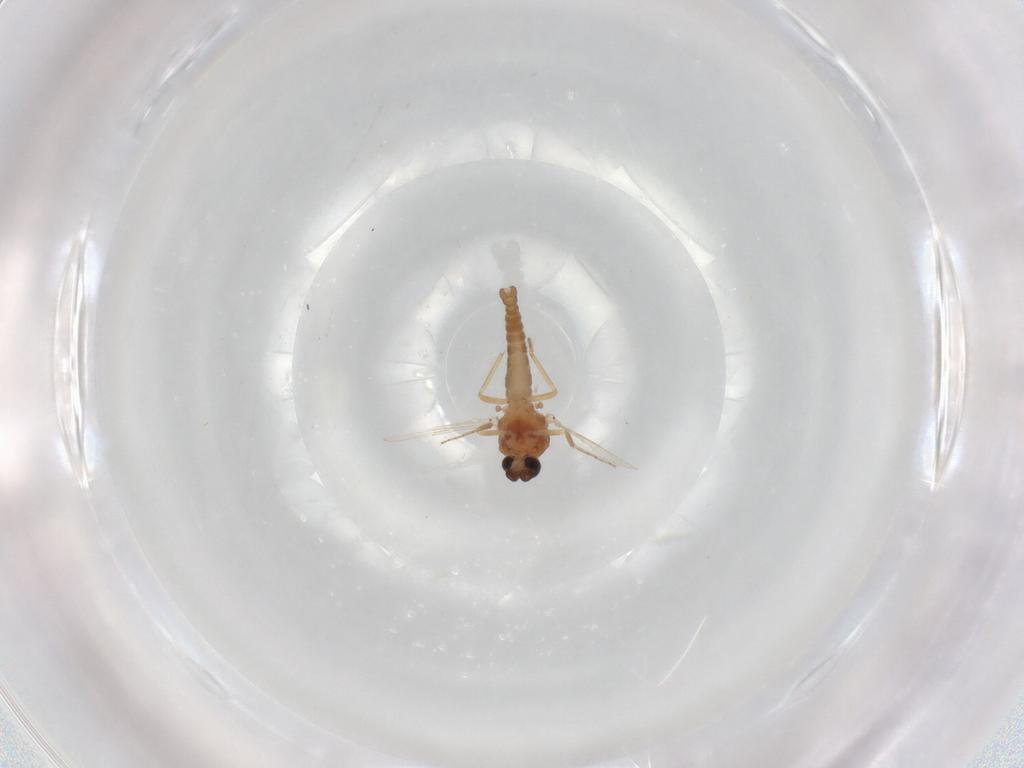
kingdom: Animalia
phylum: Arthropoda
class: Insecta
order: Diptera
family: Ceratopogonidae
